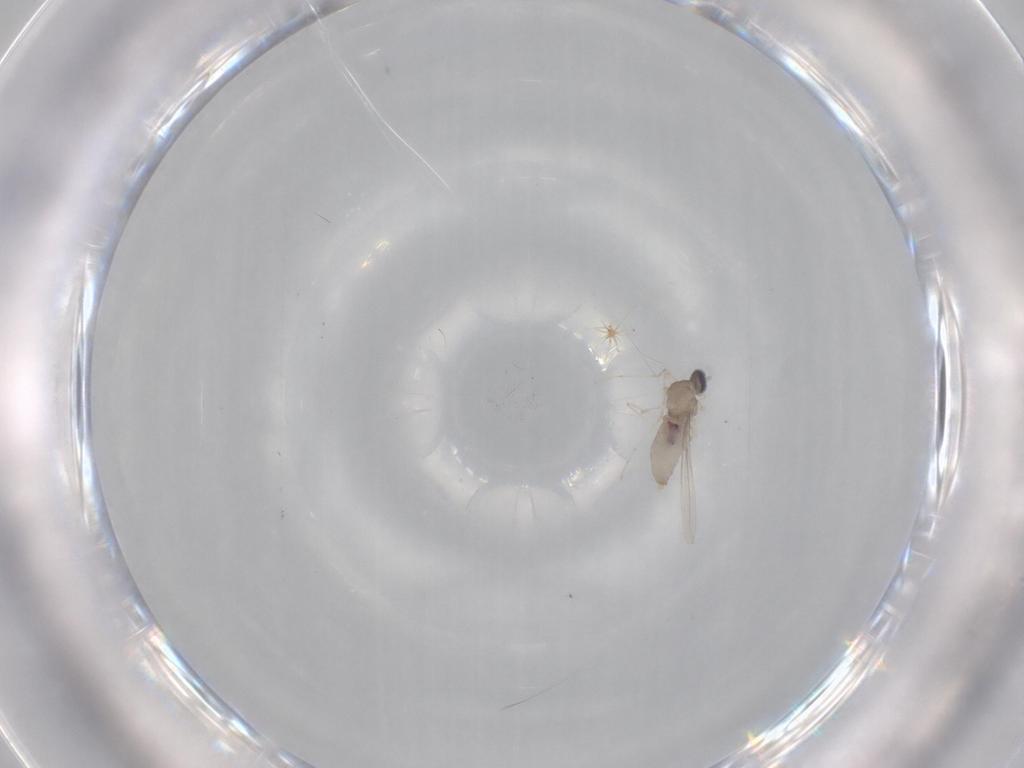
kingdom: Animalia
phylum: Arthropoda
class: Insecta
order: Diptera
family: Cecidomyiidae
